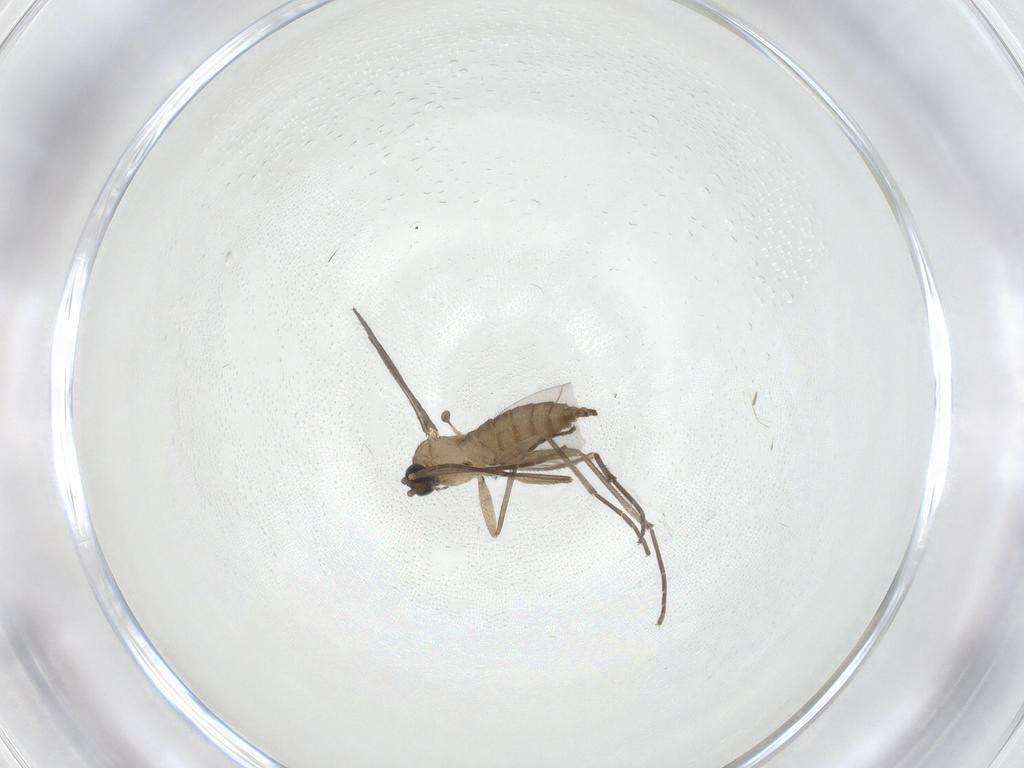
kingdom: Animalia
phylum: Arthropoda
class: Insecta
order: Diptera
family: Sciaridae
